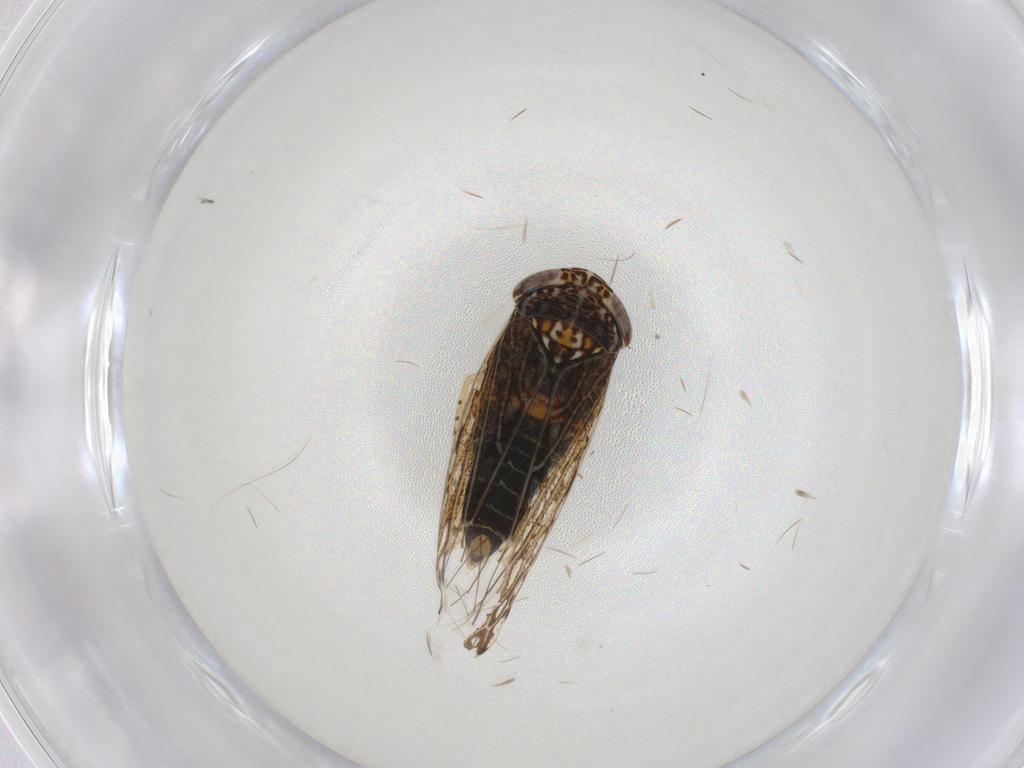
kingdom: Animalia
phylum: Arthropoda
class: Insecta
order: Hemiptera
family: Cicadellidae
